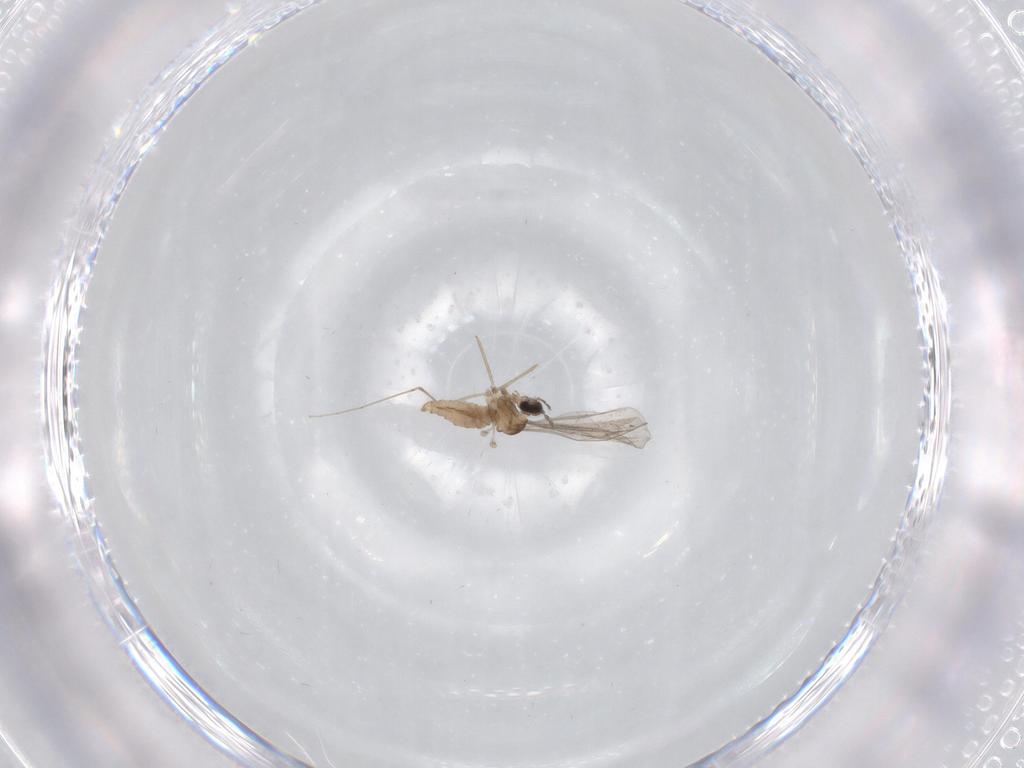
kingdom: Animalia
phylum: Arthropoda
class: Insecta
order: Diptera
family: Cecidomyiidae
